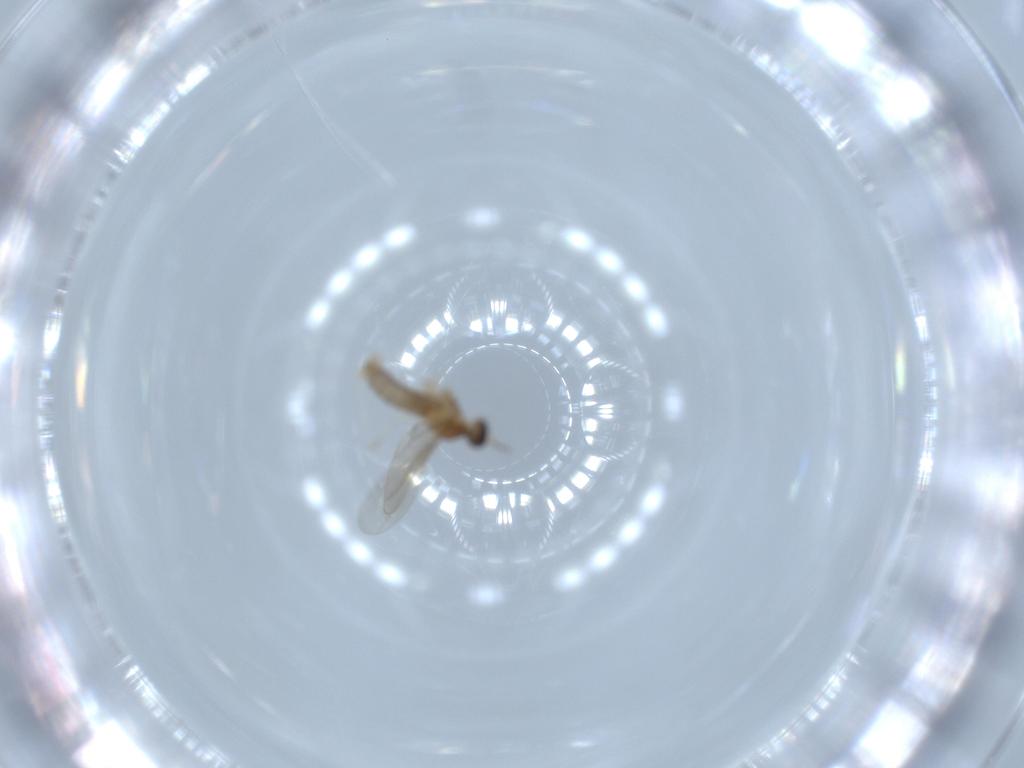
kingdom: Animalia
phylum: Arthropoda
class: Insecta
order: Diptera
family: Cecidomyiidae
